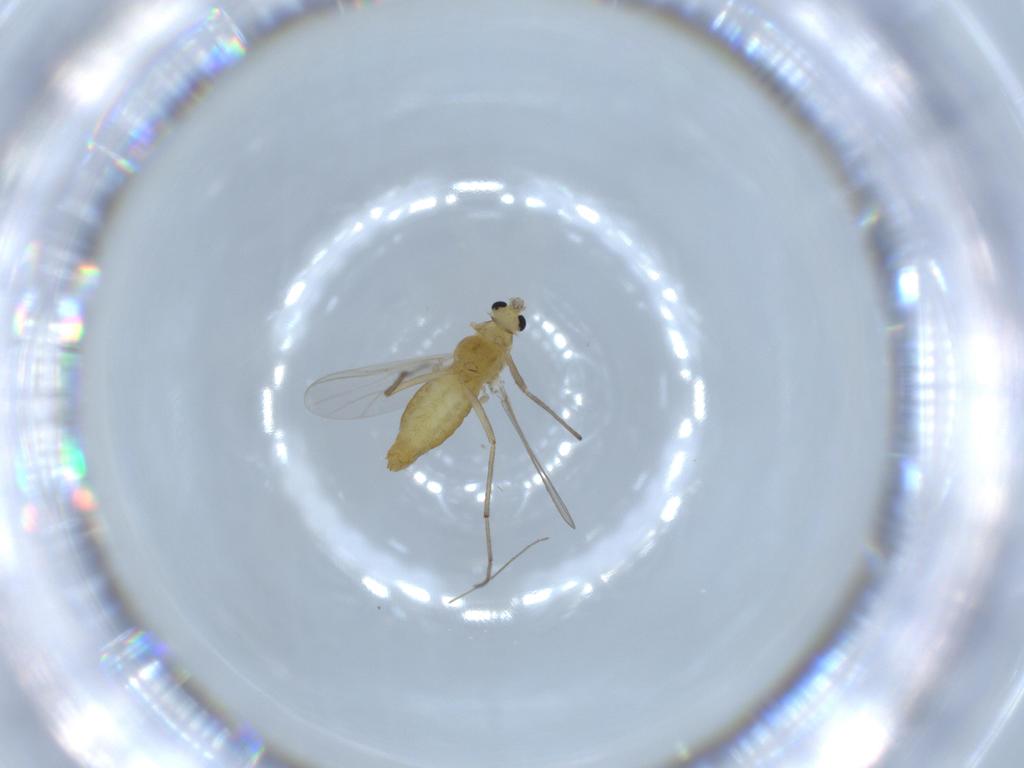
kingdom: Animalia
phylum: Arthropoda
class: Insecta
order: Diptera
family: Chironomidae
